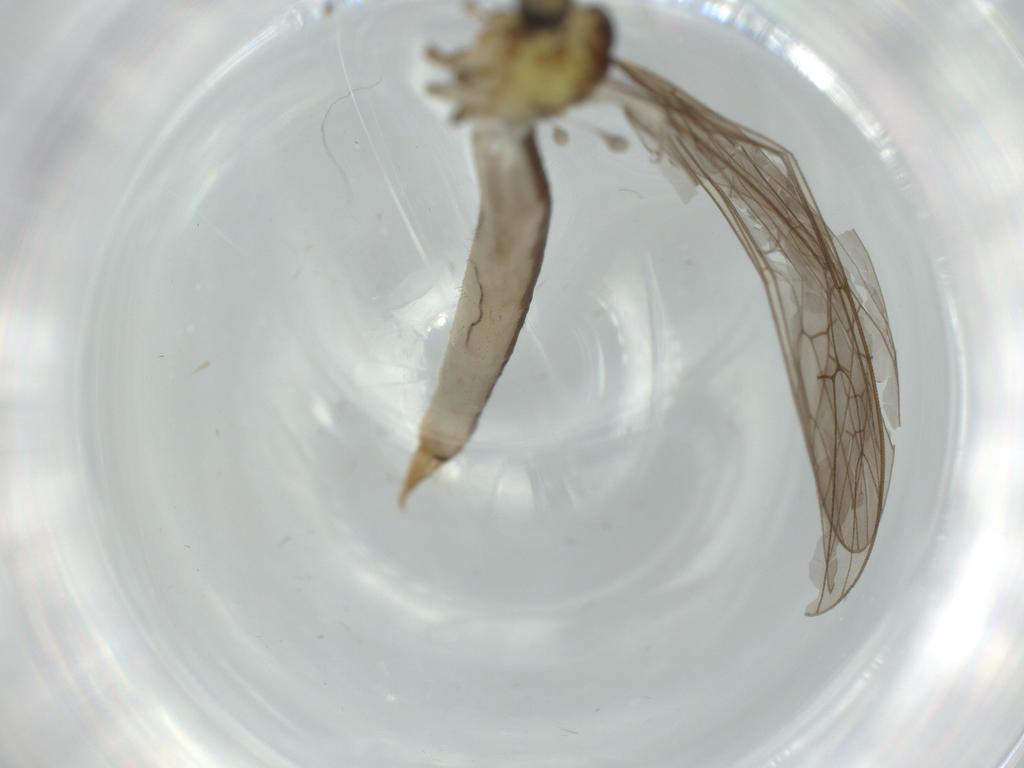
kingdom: Animalia
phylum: Arthropoda
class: Insecta
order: Diptera
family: Limoniidae
